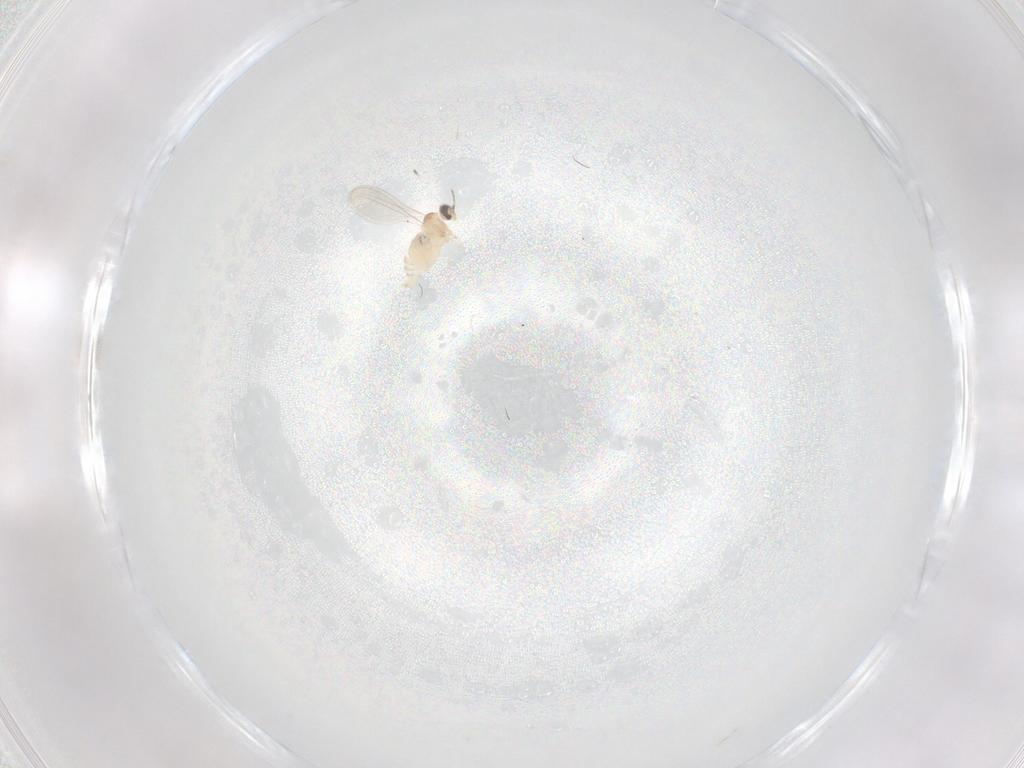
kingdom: Animalia
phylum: Arthropoda
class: Insecta
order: Diptera
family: Cecidomyiidae
